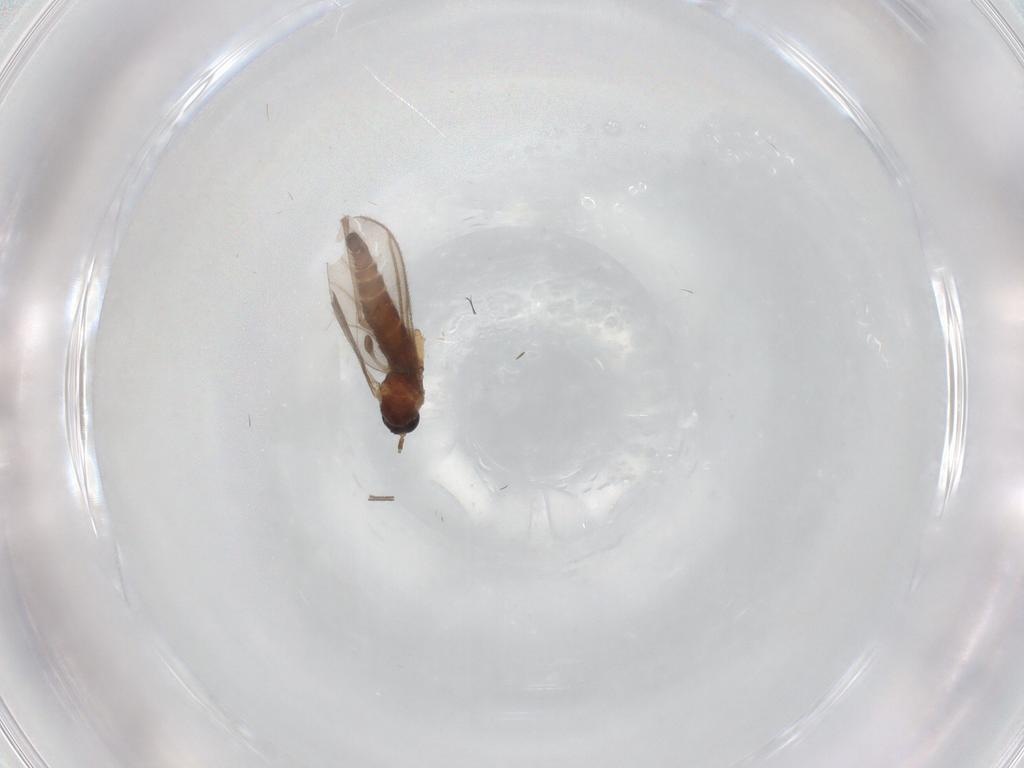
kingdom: Animalia
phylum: Arthropoda
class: Insecta
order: Diptera
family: Sciaridae
